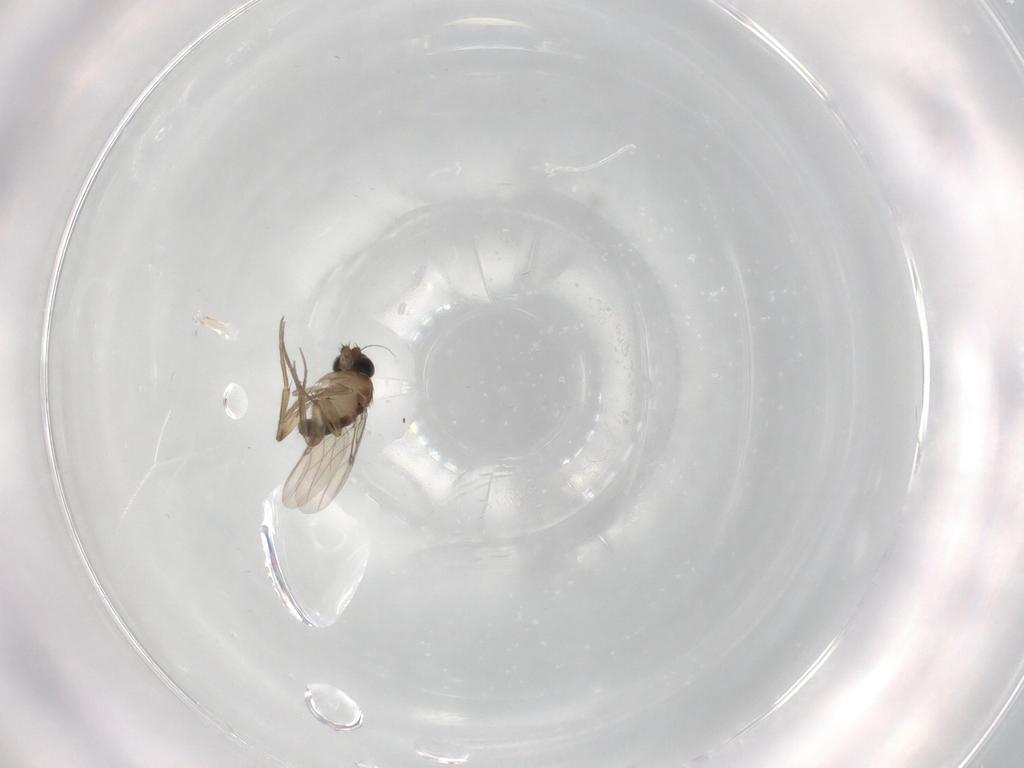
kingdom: Animalia
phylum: Arthropoda
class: Insecta
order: Diptera
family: Phoridae
